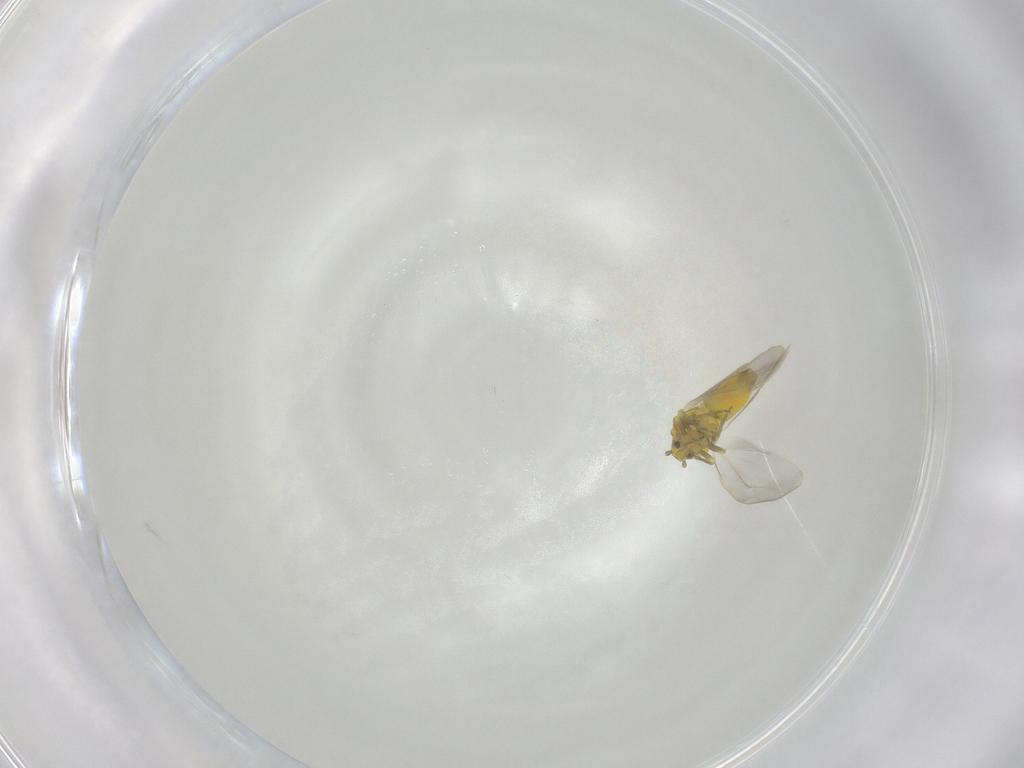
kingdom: Animalia
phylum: Arthropoda
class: Insecta
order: Hemiptera
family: Aleyrodidae
